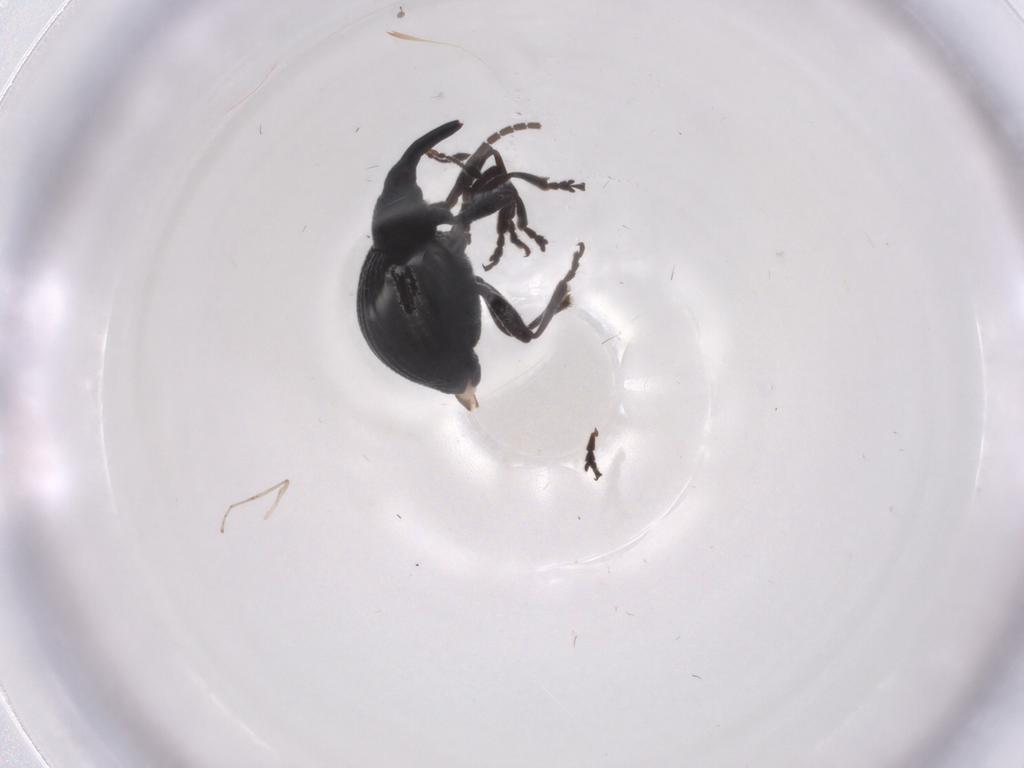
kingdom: Animalia
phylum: Arthropoda
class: Insecta
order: Coleoptera
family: Brentidae
